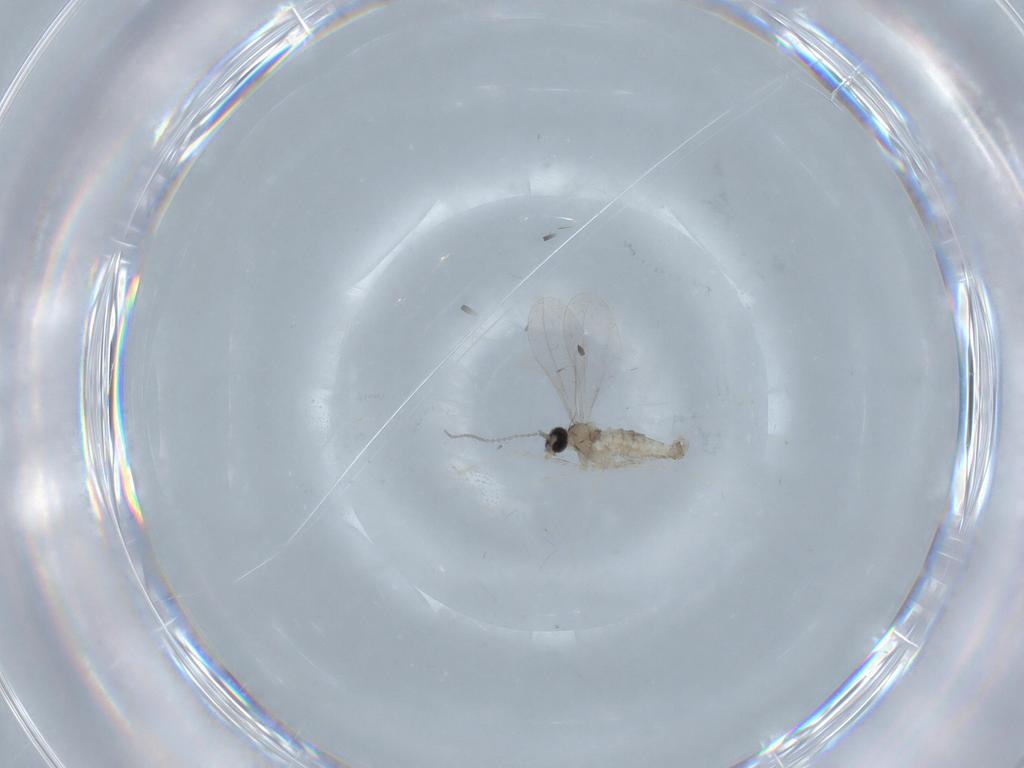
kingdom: Animalia
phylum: Arthropoda
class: Insecta
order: Diptera
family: Cecidomyiidae
